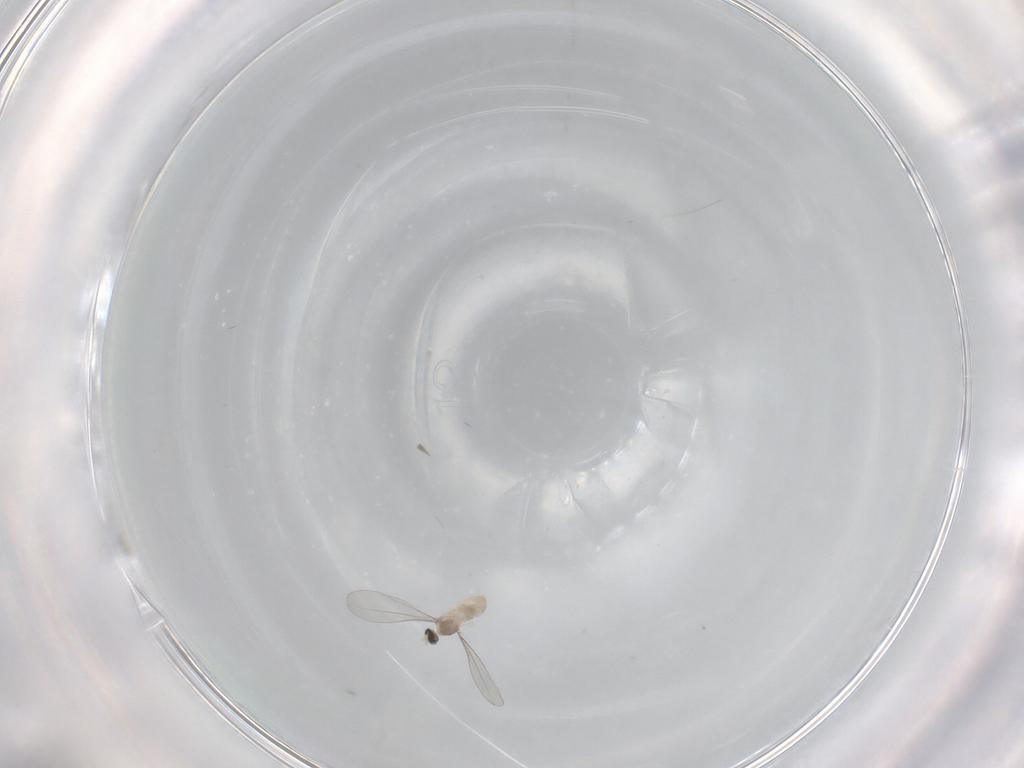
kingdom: Animalia
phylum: Arthropoda
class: Insecta
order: Diptera
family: Cecidomyiidae
